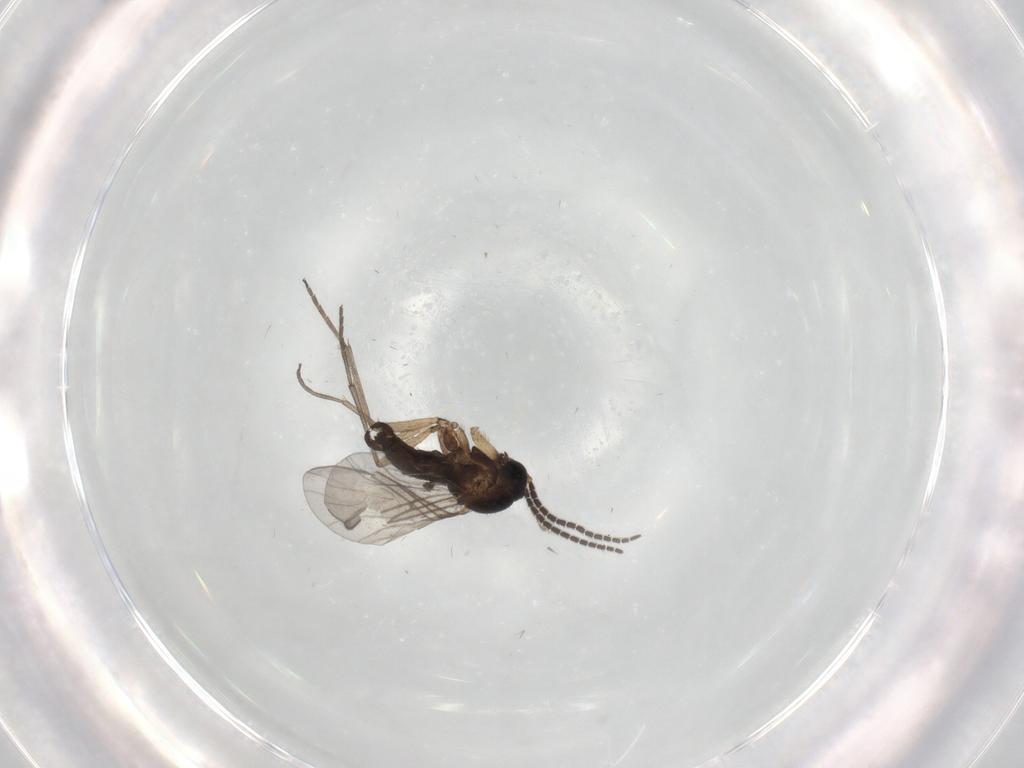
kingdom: Animalia
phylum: Arthropoda
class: Insecta
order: Diptera
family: Sciaridae
